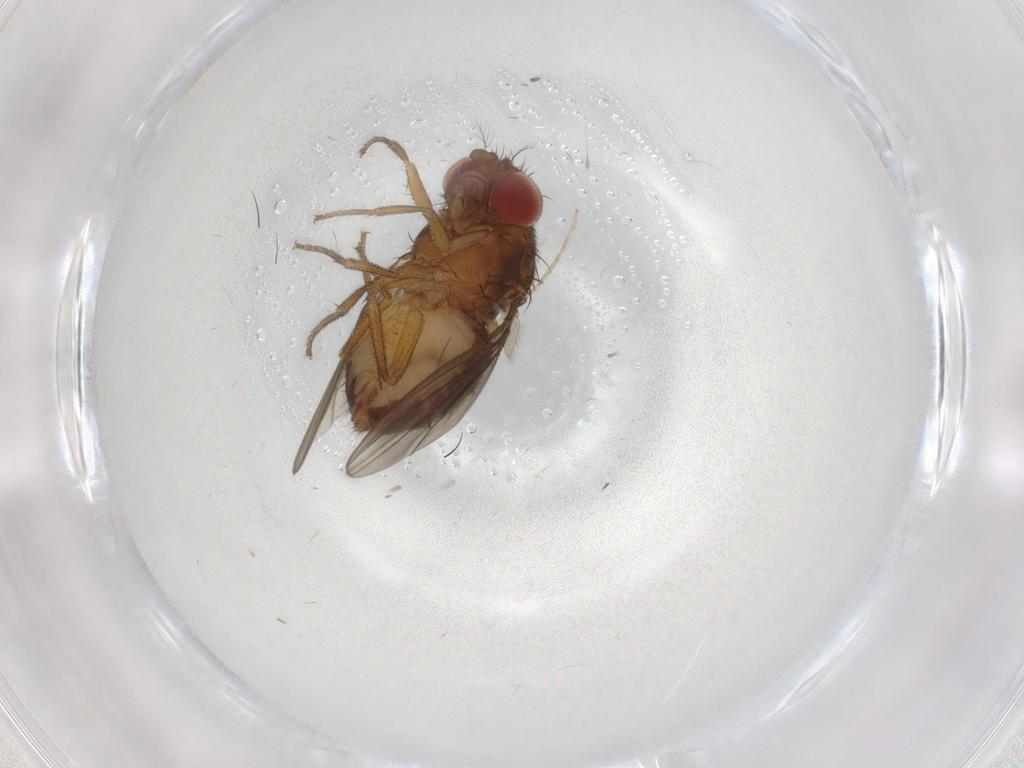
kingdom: Animalia
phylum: Arthropoda
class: Insecta
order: Diptera
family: Drosophilidae
